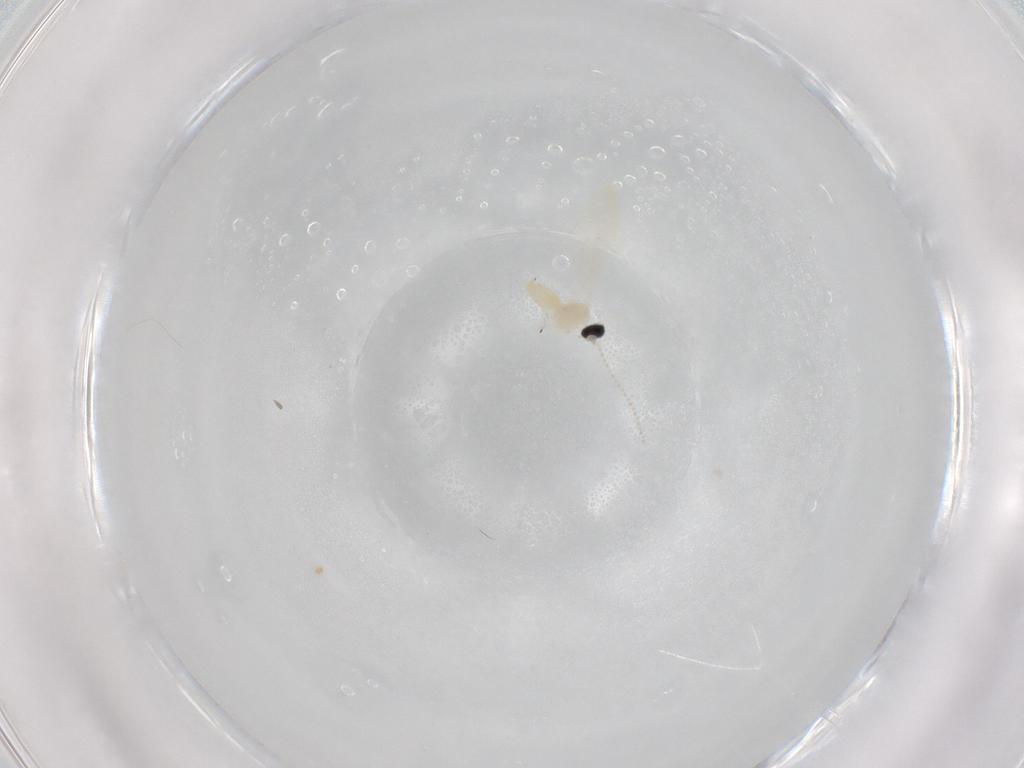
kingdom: Animalia
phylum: Arthropoda
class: Insecta
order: Diptera
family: Cecidomyiidae
